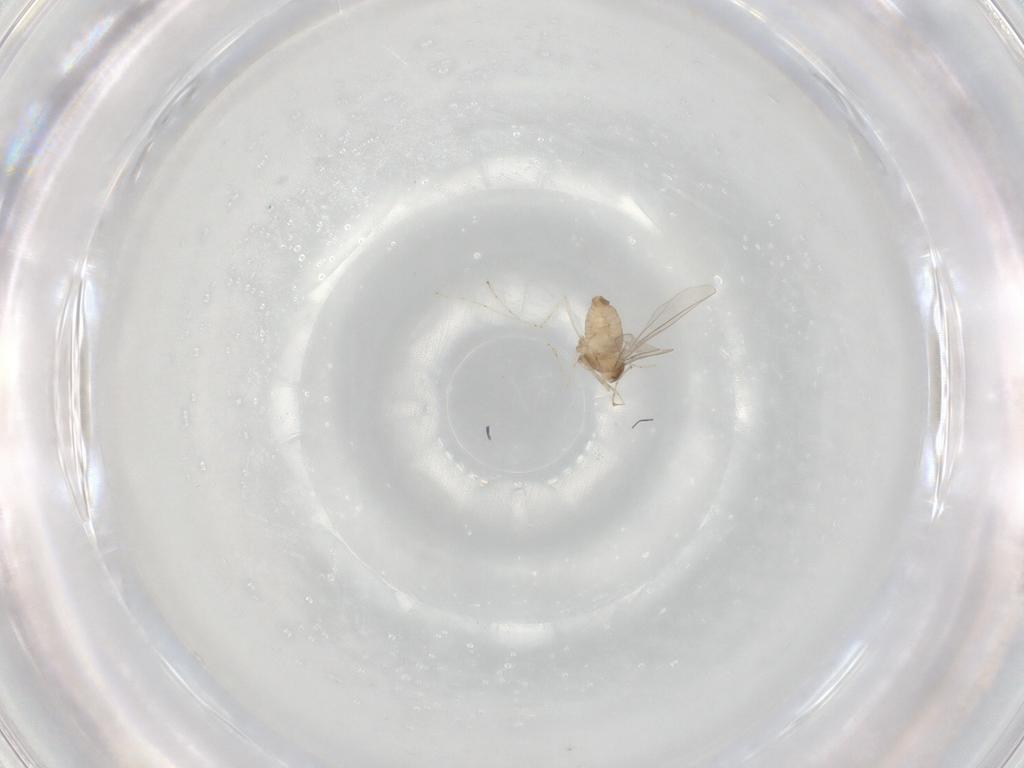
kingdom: Animalia
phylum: Arthropoda
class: Insecta
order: Diptera
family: Cecidomyiidae
